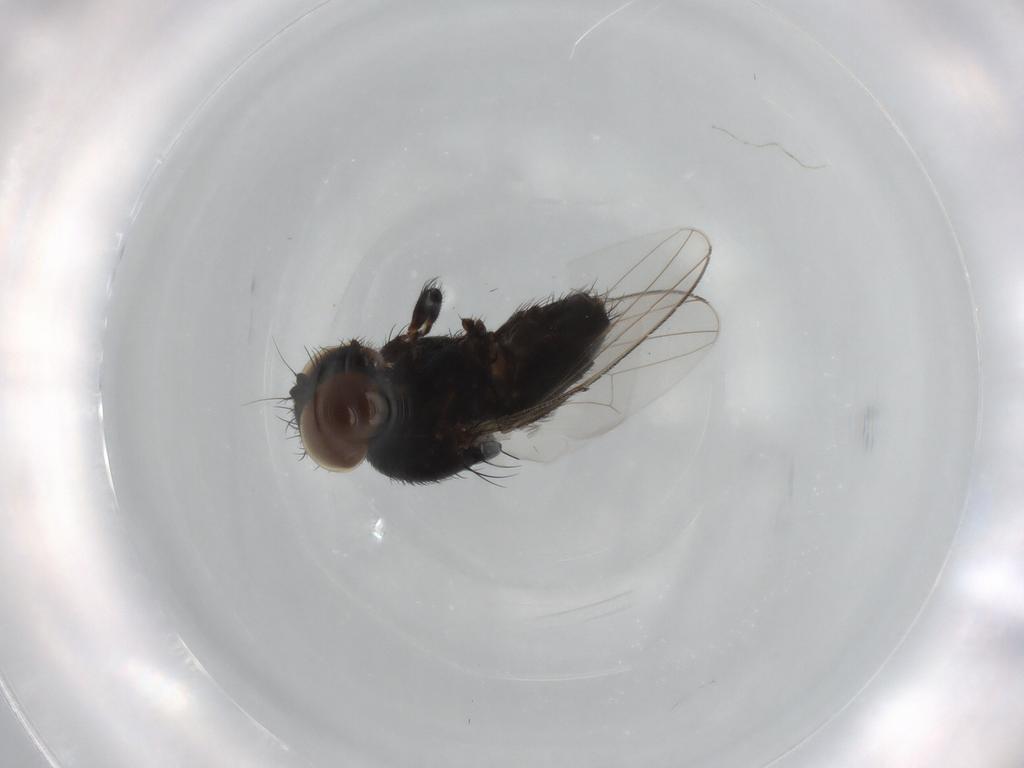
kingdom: Animalia
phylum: Arthropoda
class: Insecta
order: Diptera
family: Milichiidae
